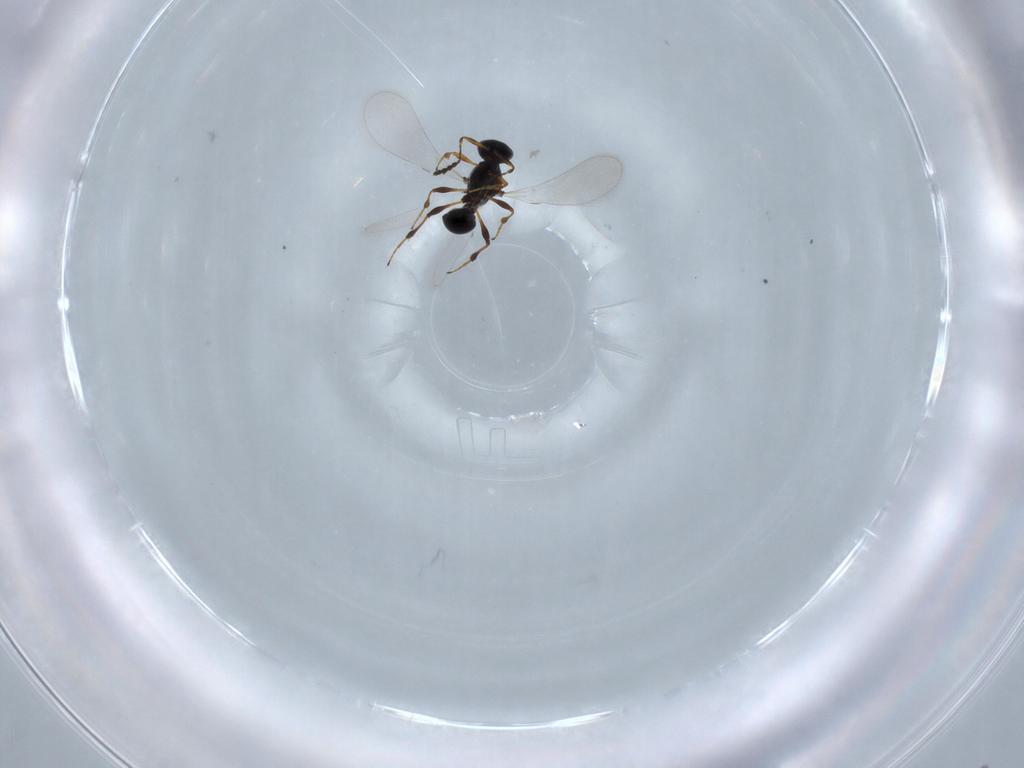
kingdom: Animalia
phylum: Arthropoda
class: Insecta
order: Hymenoptera
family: Platygastridae
